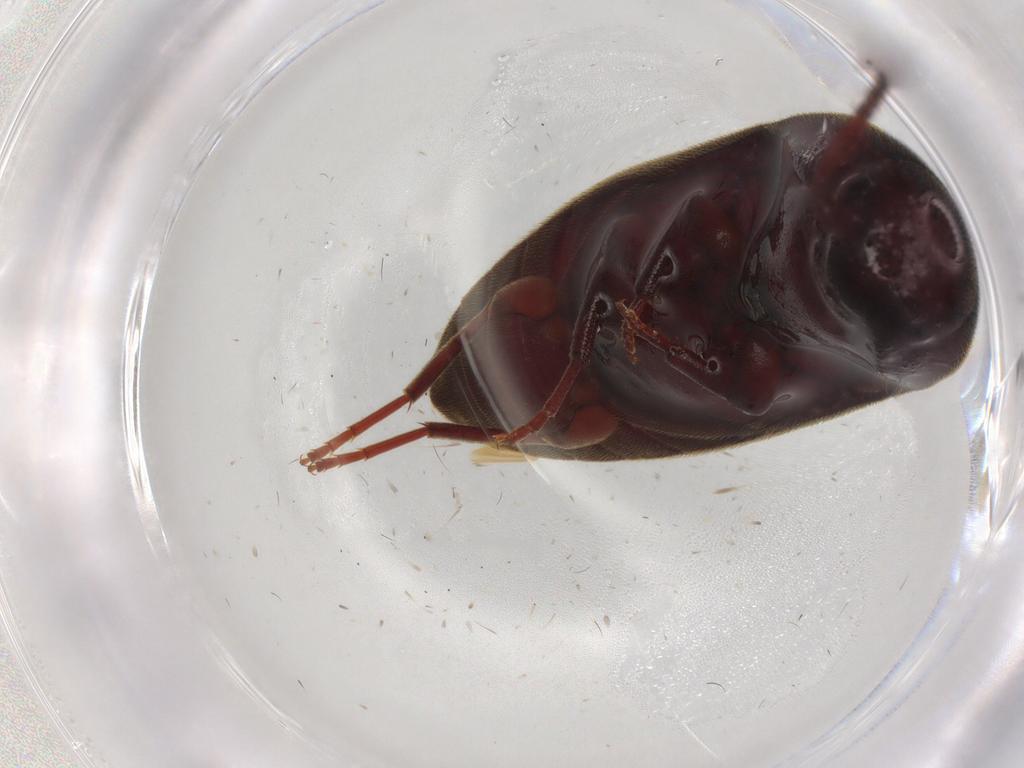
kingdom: Animalia
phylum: Arthropoda
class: Insecta
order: Coleoptera
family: Eucnemidae
